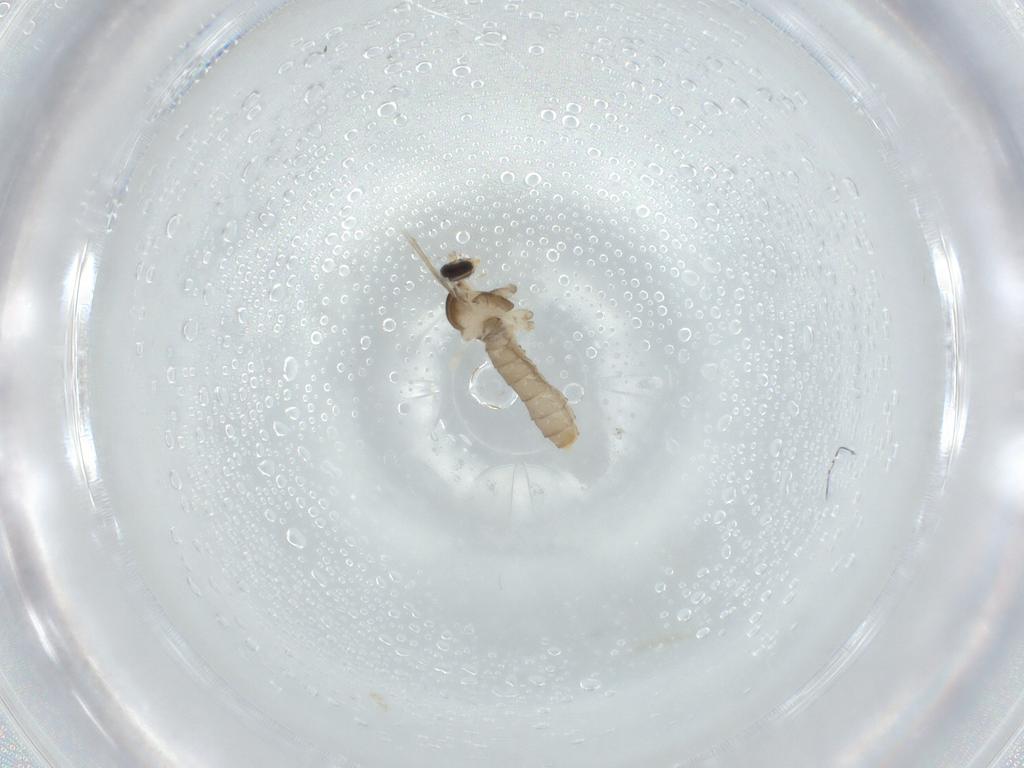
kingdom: Animalia
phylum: Arthropoda
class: Insecta
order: Diptera
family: Cecidomyiidae
